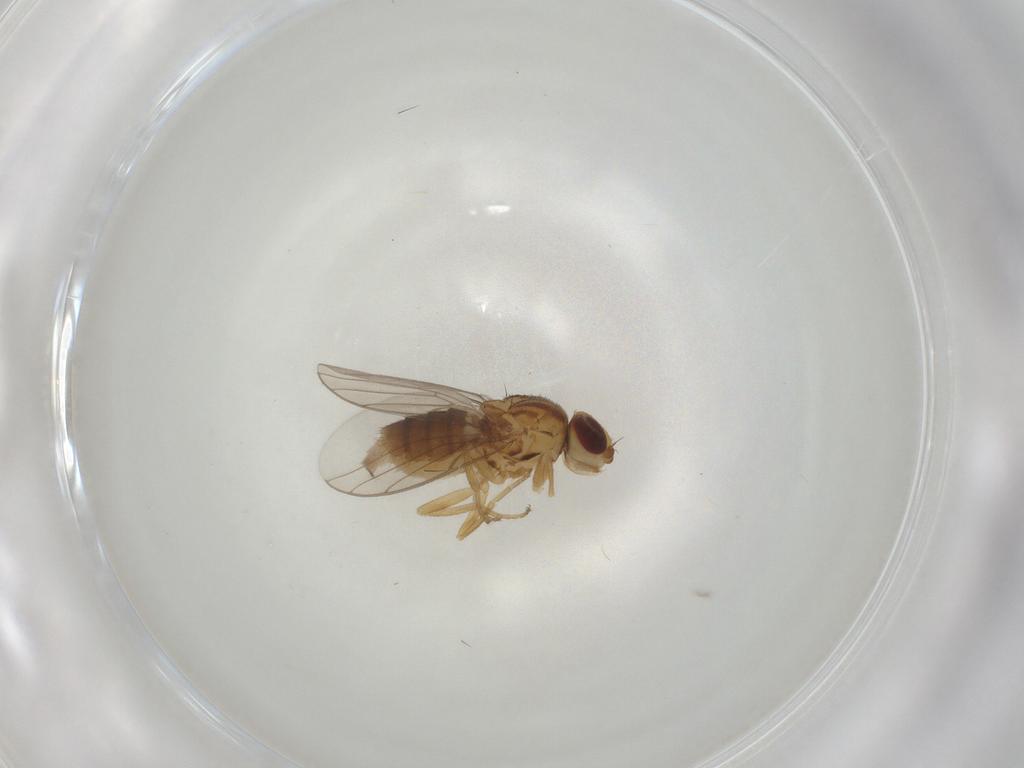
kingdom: Animalia
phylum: Arthropoda
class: Insecta
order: Diptera
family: Chloropidae
